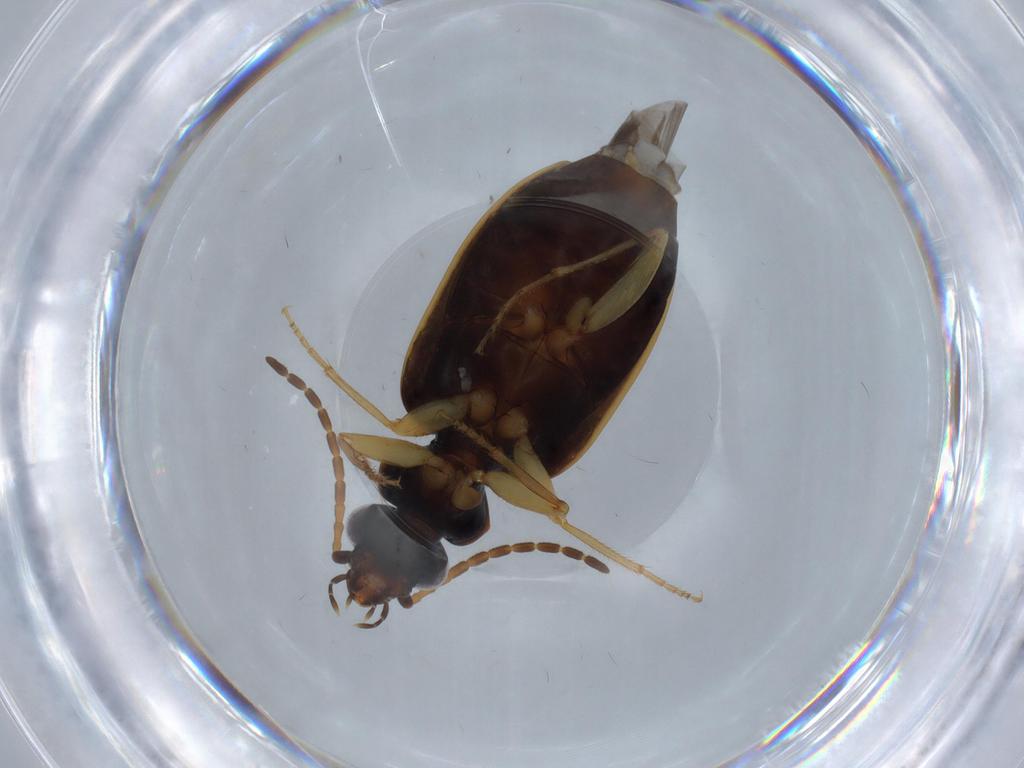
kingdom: Animalia
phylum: Arthropoda
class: Insecta
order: Coleoptera
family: Carabidae
